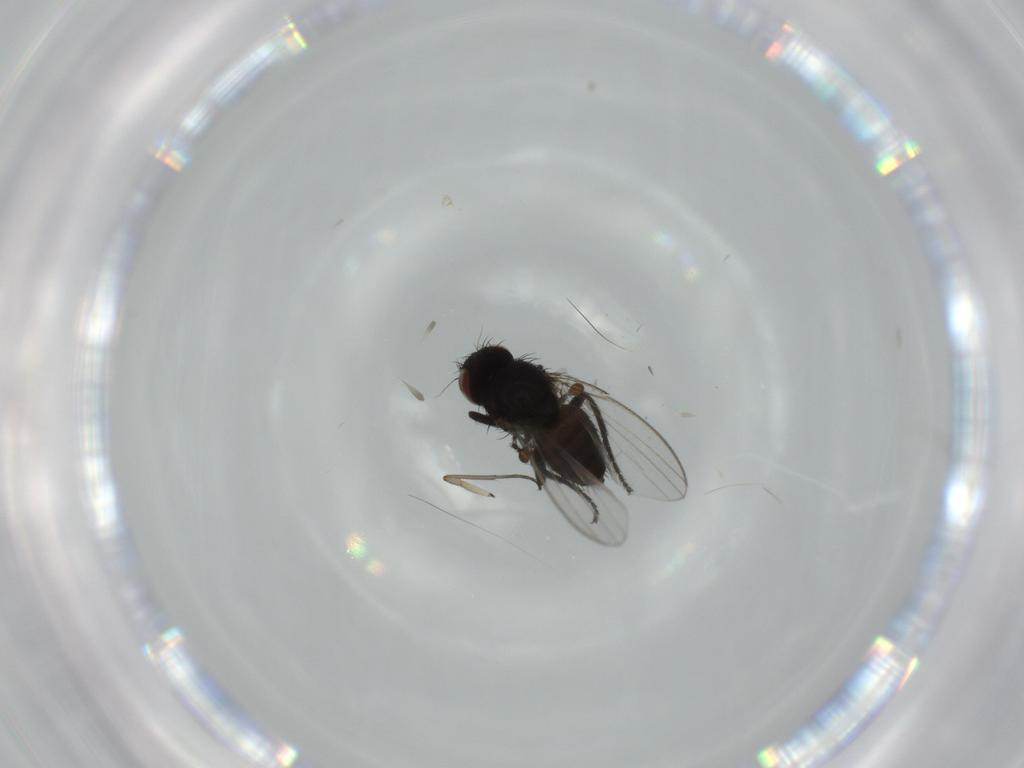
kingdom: Animalia
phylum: Arthropoda
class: Insecta
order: Diptera
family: Sciaridae
